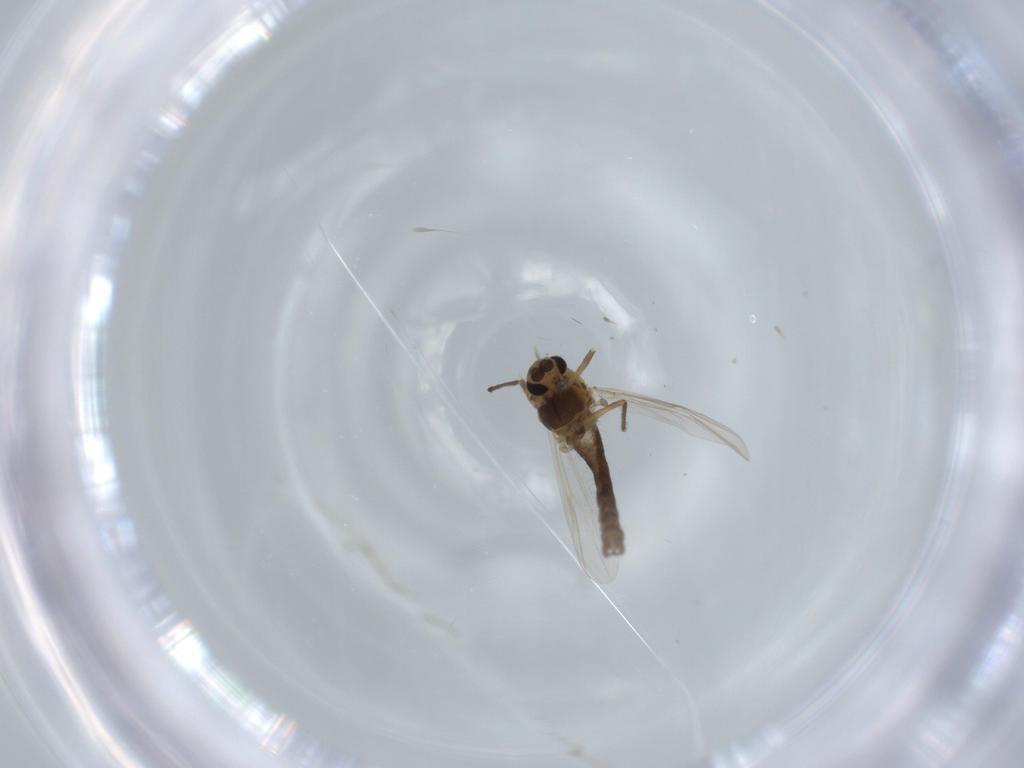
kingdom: Animalia
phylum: Arthropoda
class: Insecta
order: Diptera
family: Chironomidae
